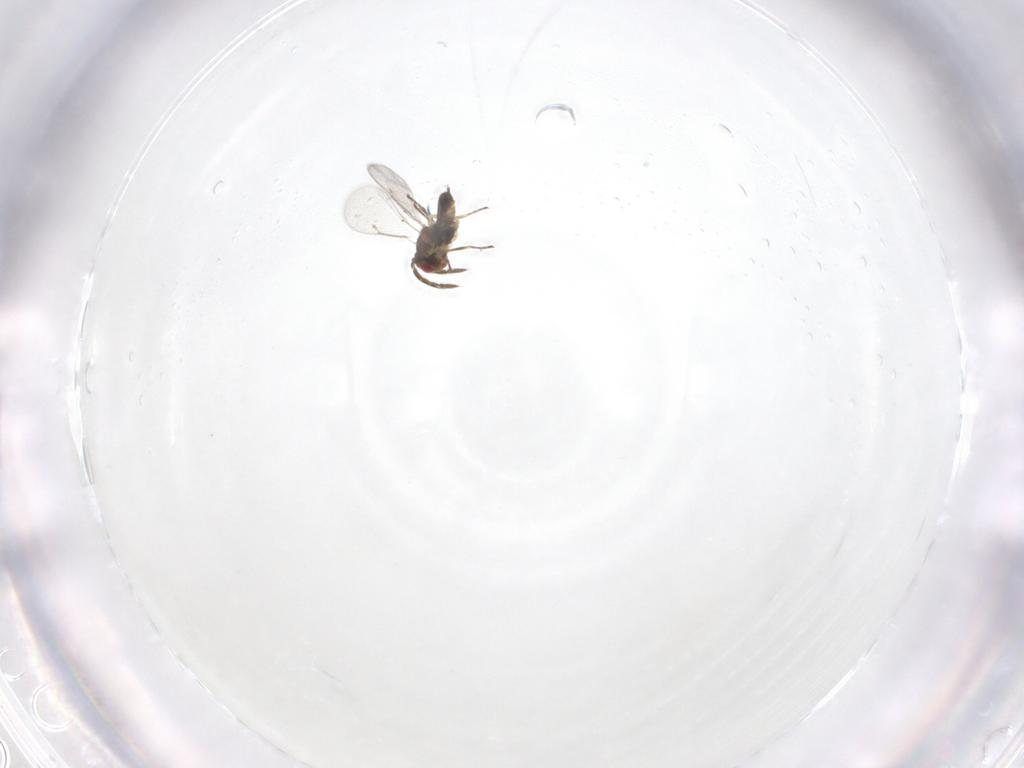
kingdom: Animalia
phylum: Arthropoda
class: Insecta
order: Hymenoptera
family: Eulophidae
